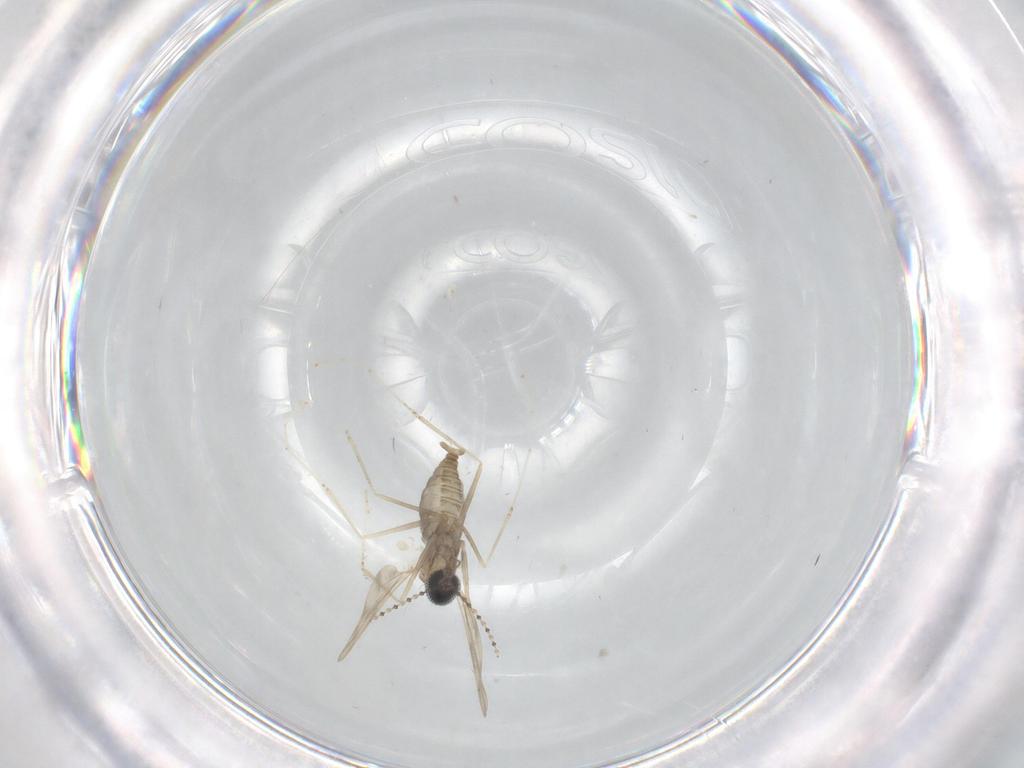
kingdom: Animalia
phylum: Arthropoda
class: Insecta
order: Diptera
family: Cecidomyiidae
